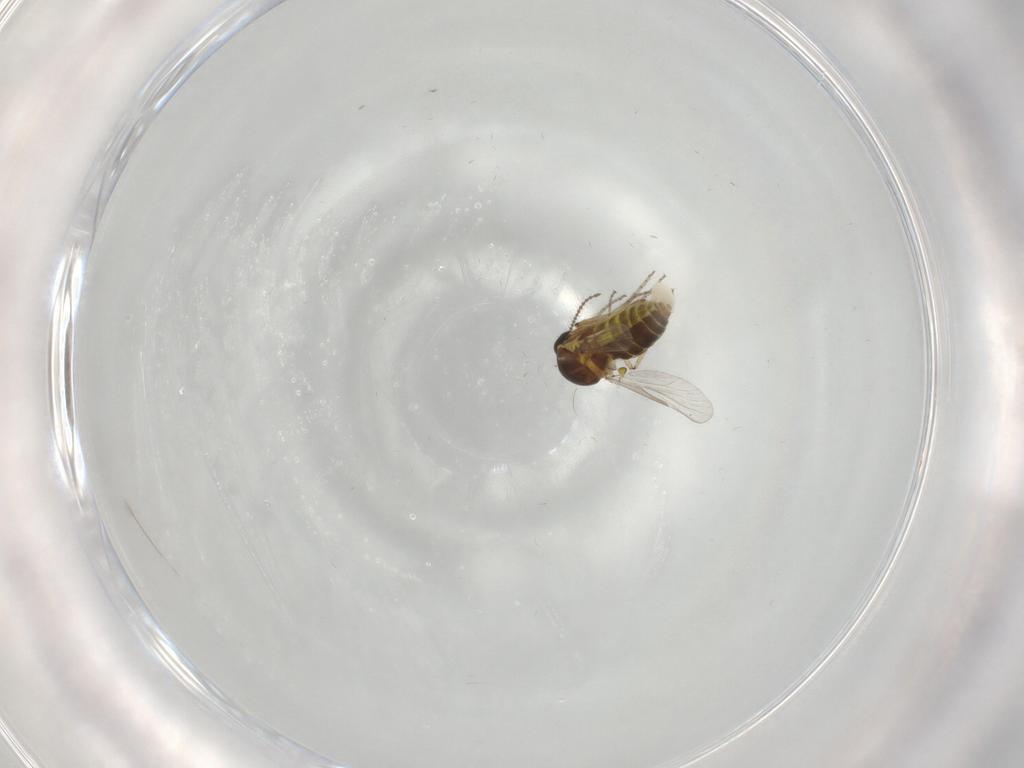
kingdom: Animalia
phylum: Arthropoda
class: Insecta
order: Diptera
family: Ceratopogonidae
